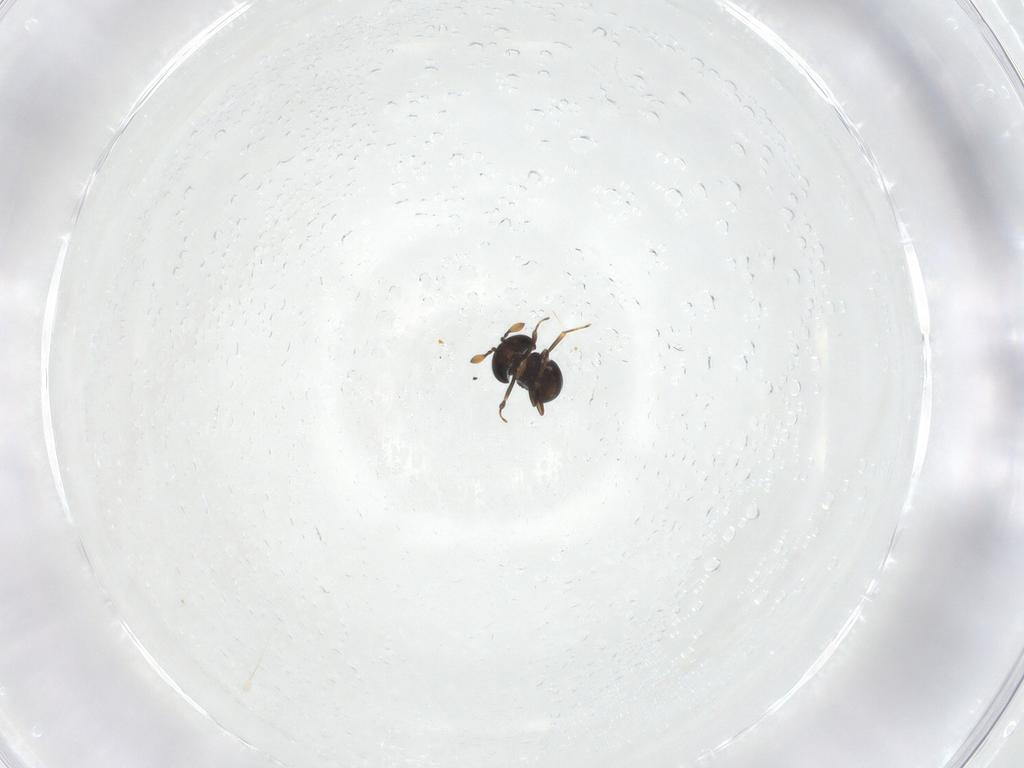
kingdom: Animalia
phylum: Arthropoda
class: Insecta
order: Hymenoptera
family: Scelionidae
